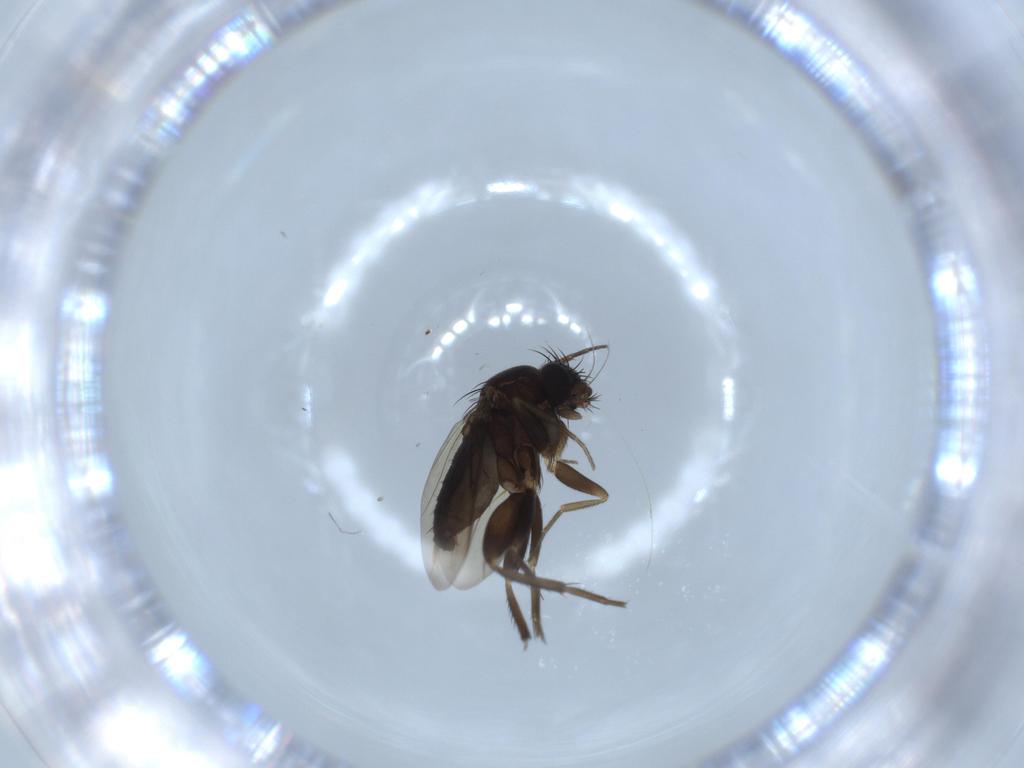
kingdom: Animalia
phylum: Arthropoda
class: Insecta
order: Diptera
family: Phoridae
